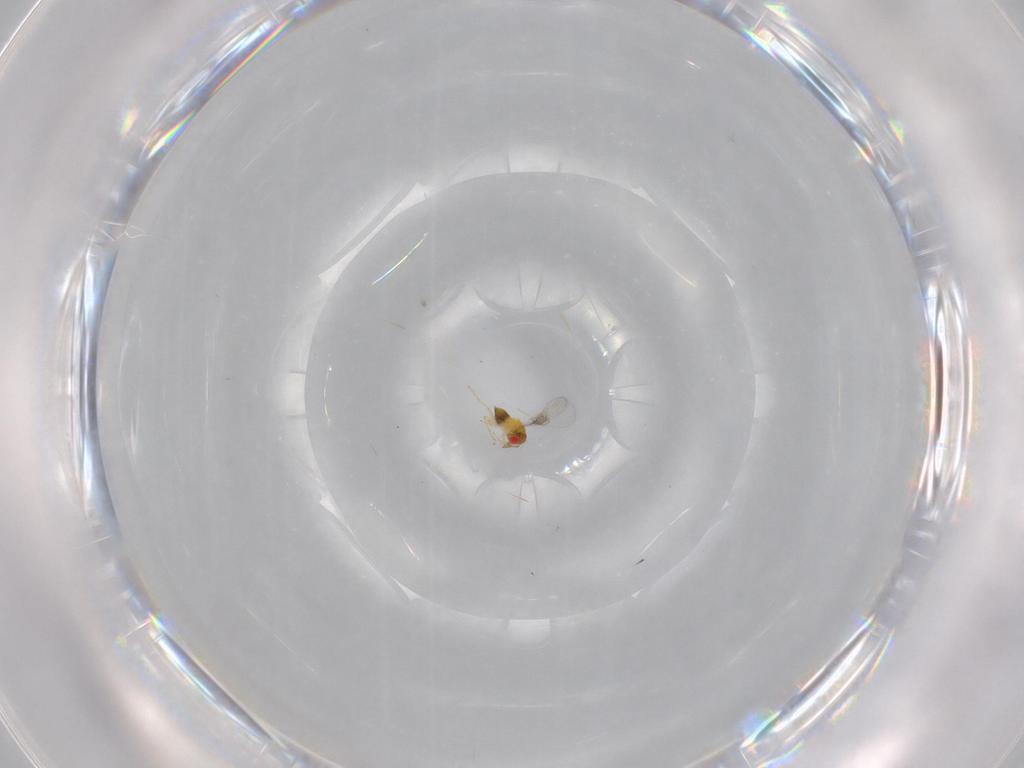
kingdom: Animalia
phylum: Arthropoda
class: Insecta
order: Hymenoptera
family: Trichogrammatidae
